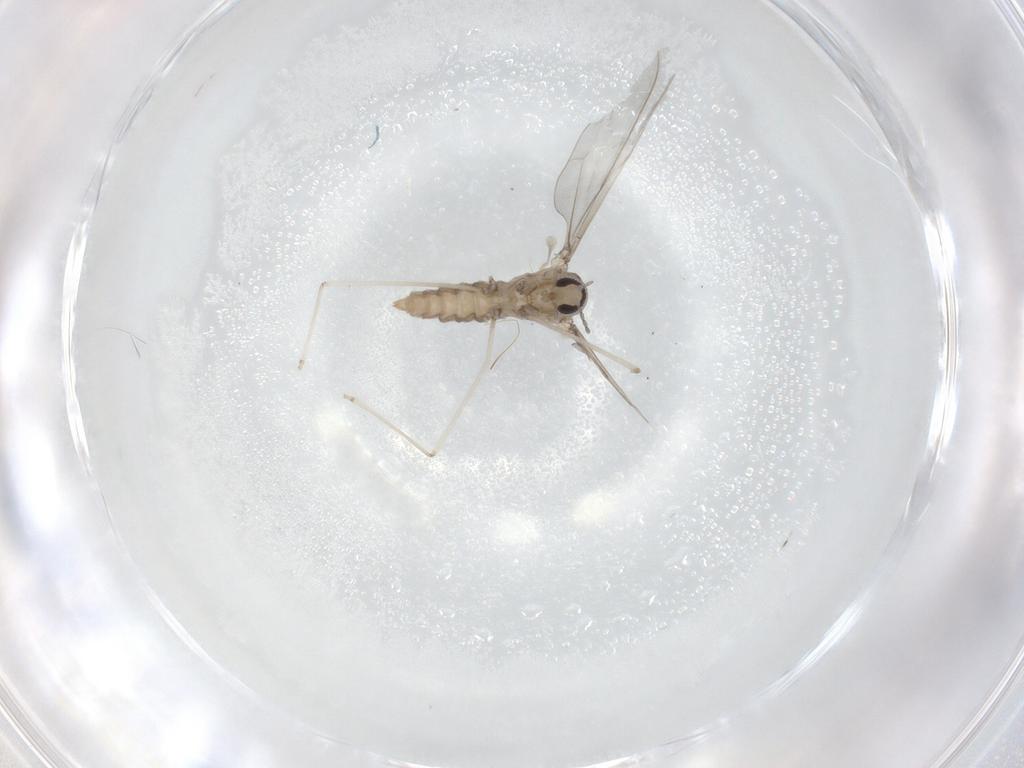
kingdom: Animalia
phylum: Arthropoda
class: Insecta
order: Diptera
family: Cecidomyiidae
